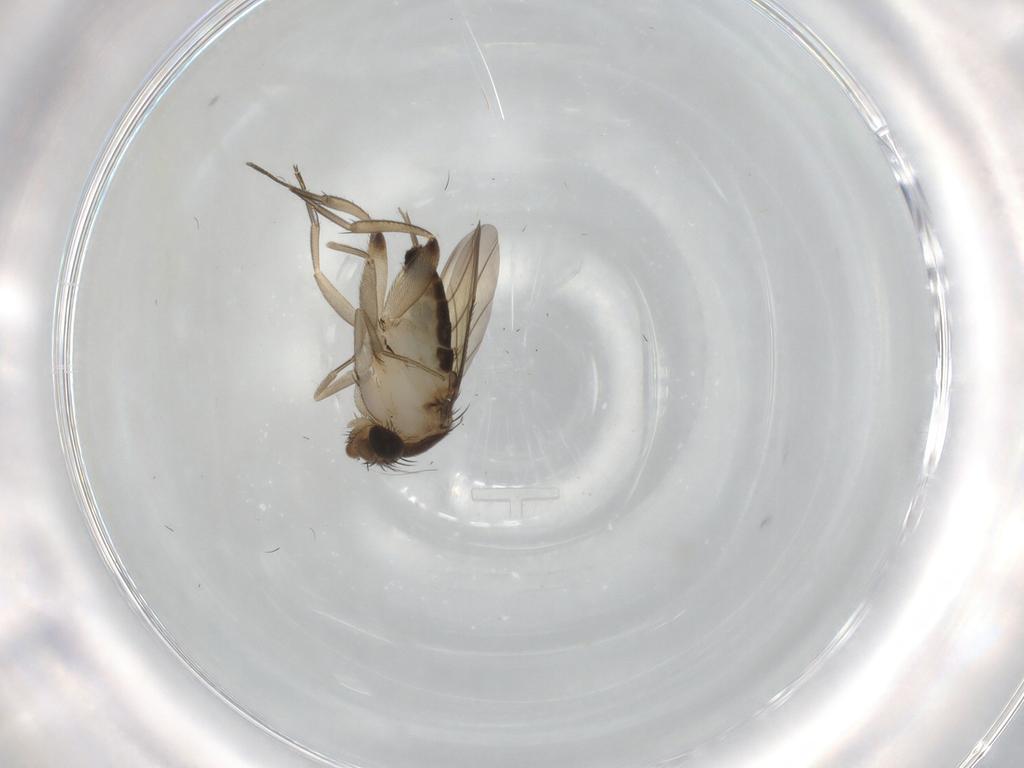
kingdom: Animalia
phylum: Arthropoda
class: Insecta
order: Diptera
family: Phoridae
